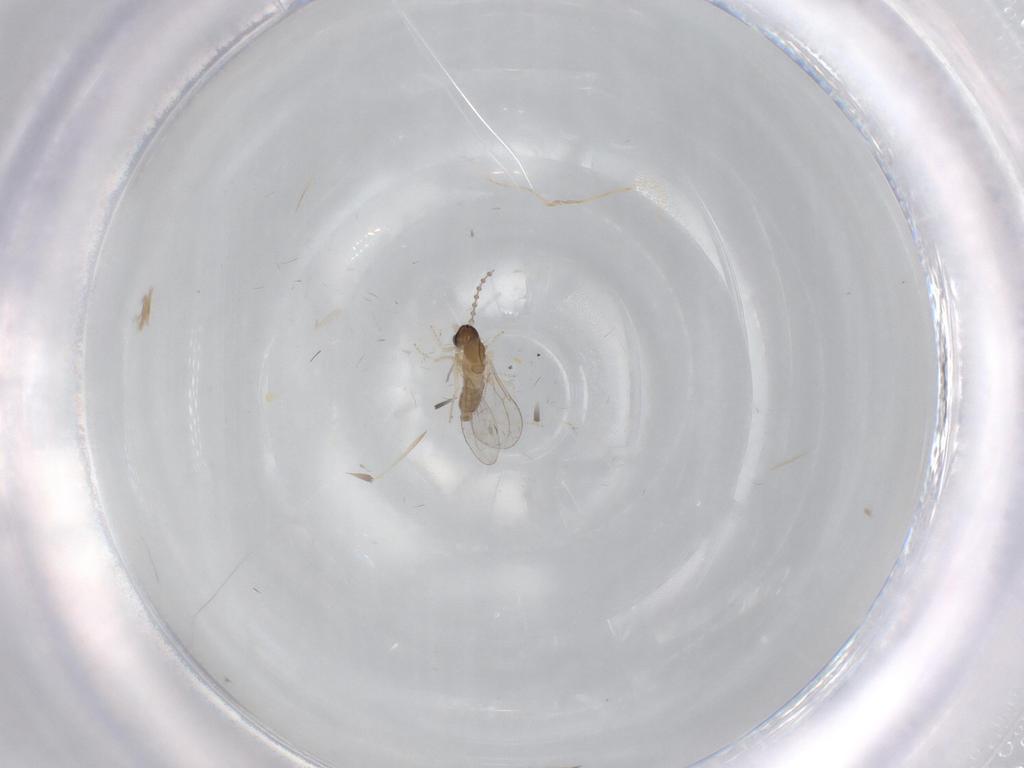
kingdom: Animalia
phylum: Arthropoda
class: Insecta
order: Diptera
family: Cecidomyiidae
